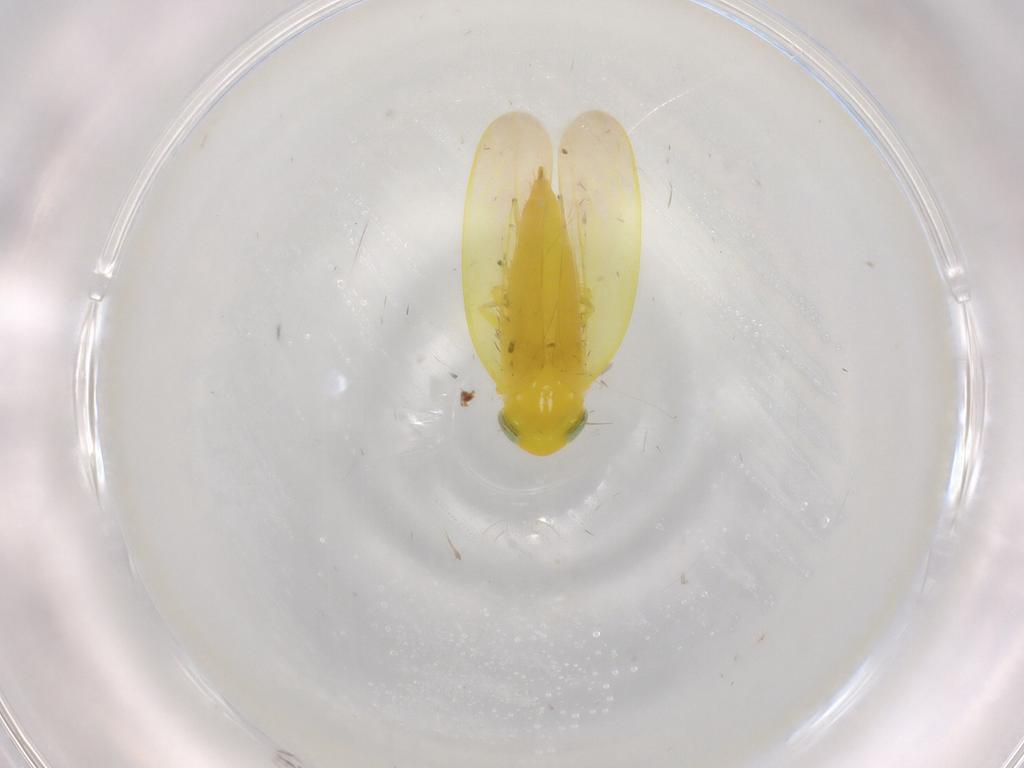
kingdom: Animalia
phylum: Arthropoda
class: Insecta
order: Hemiptera
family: Cicadellidae
